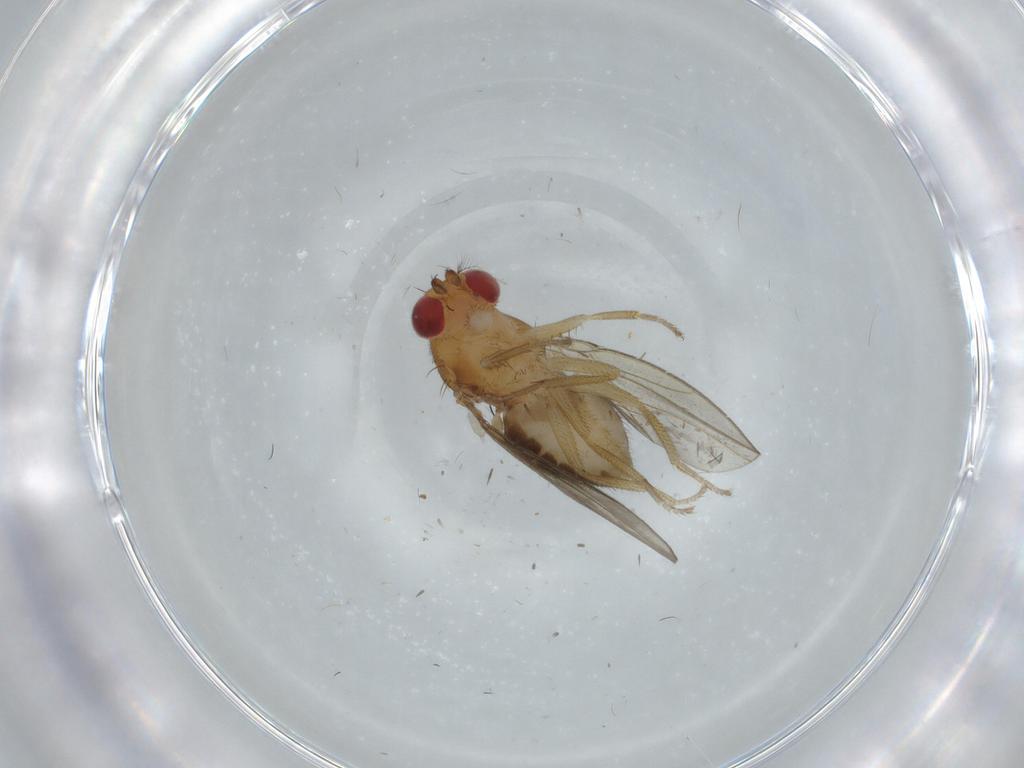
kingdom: Animalia
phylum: Arthropoda
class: Insecta
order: Diptera
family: Drosophilidae
